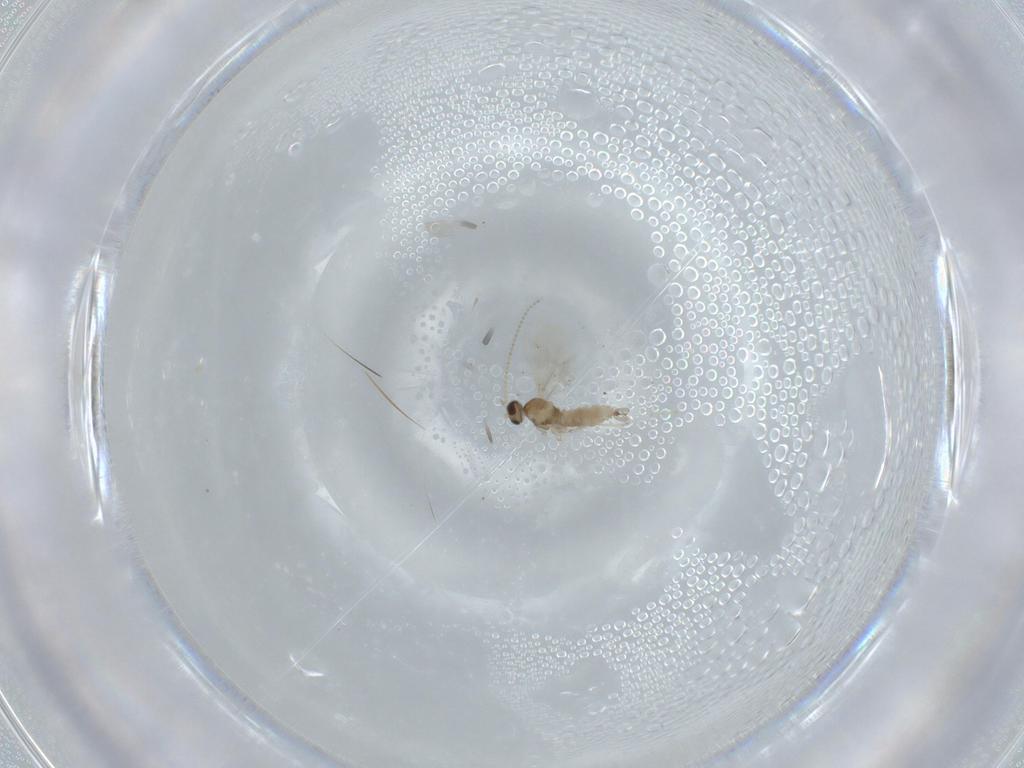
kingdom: Animalia
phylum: Arthropoda
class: Insecta
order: Diptera
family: Cecidomyiidae
